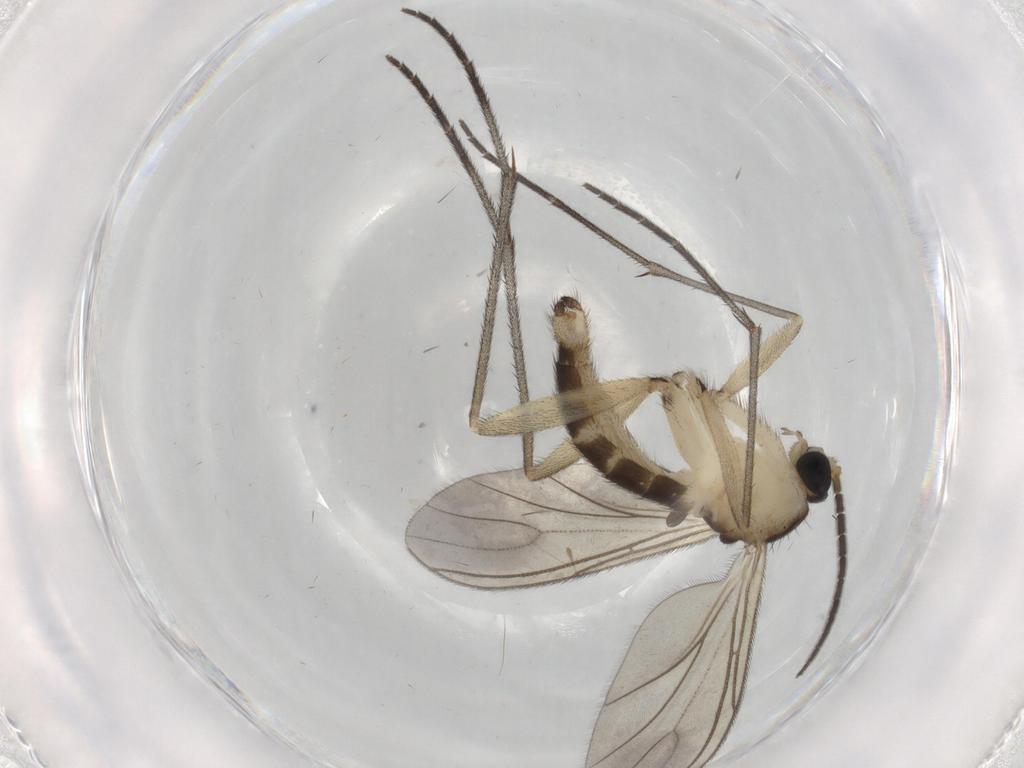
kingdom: Animalia
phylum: Arthropoda
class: Insecta
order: Diptera
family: Sciaridae
